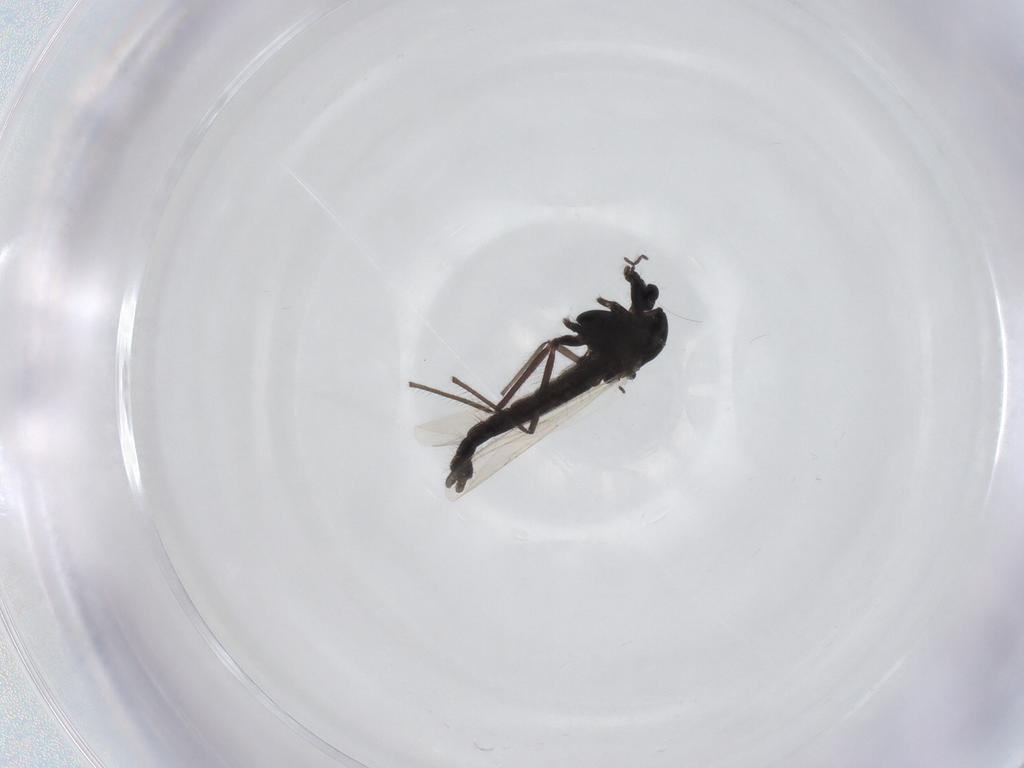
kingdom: Animalia
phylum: Arthropoda
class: Insecta
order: Diptera
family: Chironomidae
